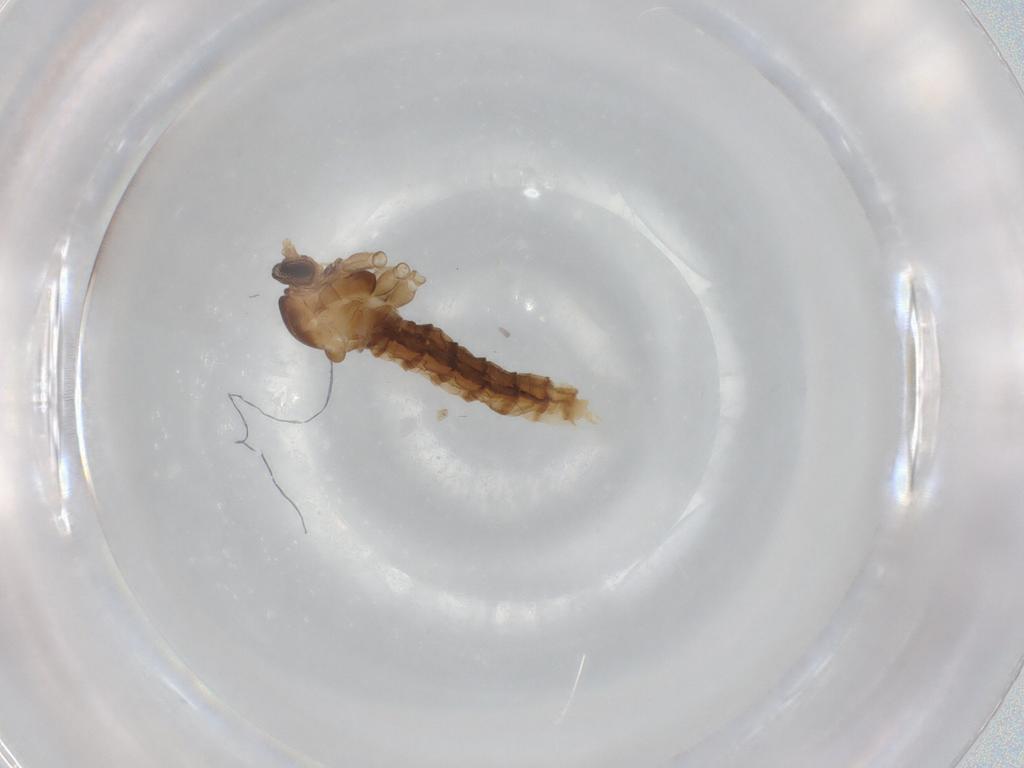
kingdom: Animalia
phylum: Arthropoda
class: Insecta
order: Diptera
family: Cecidomyiidae
